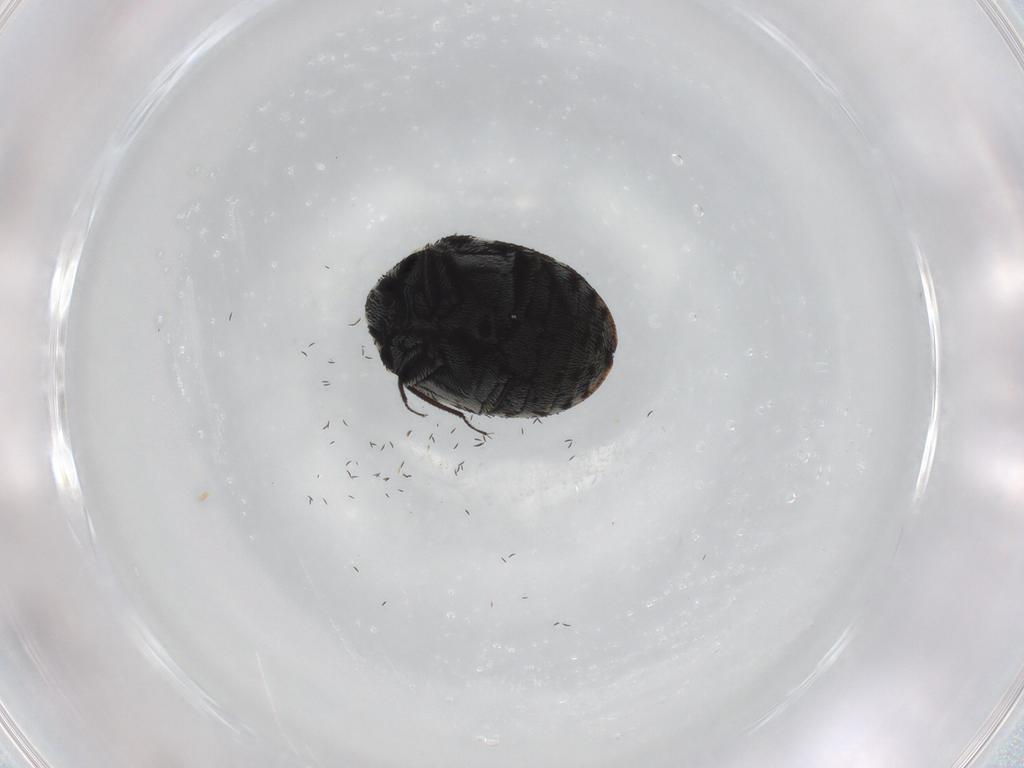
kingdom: Animalia
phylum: Arthropoda
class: Insecta
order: Coleoptera
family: Dermestidae
